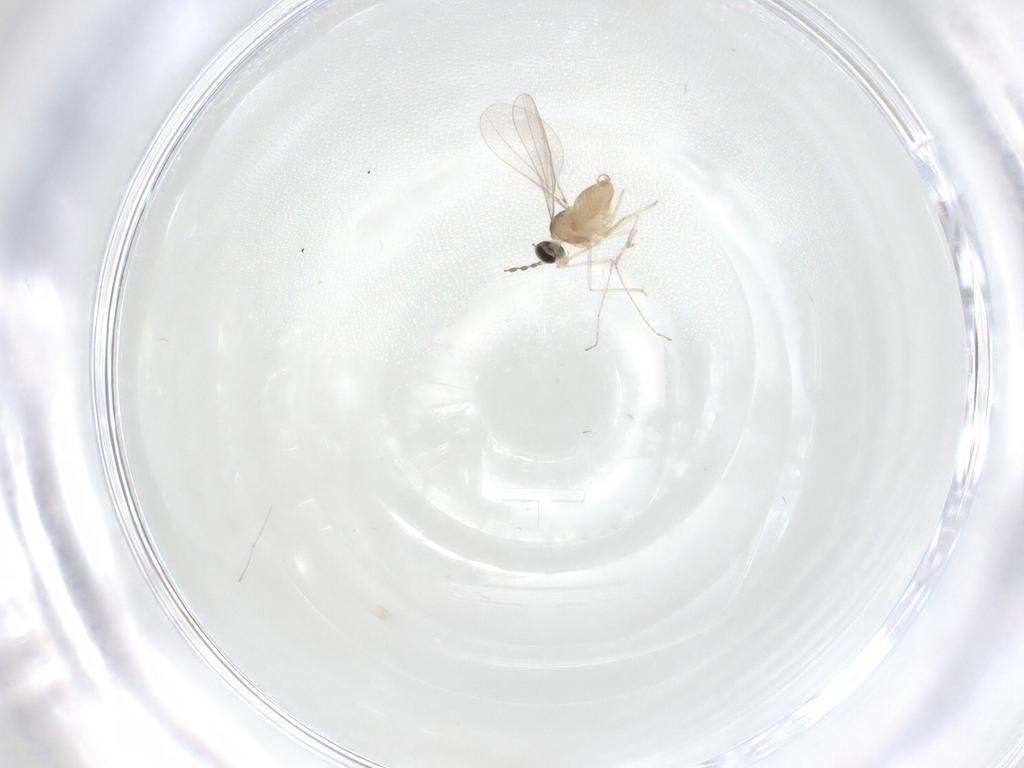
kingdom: Animalia
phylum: Arthropoda
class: Insecta
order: Diptera
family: Cecidomyiidae
